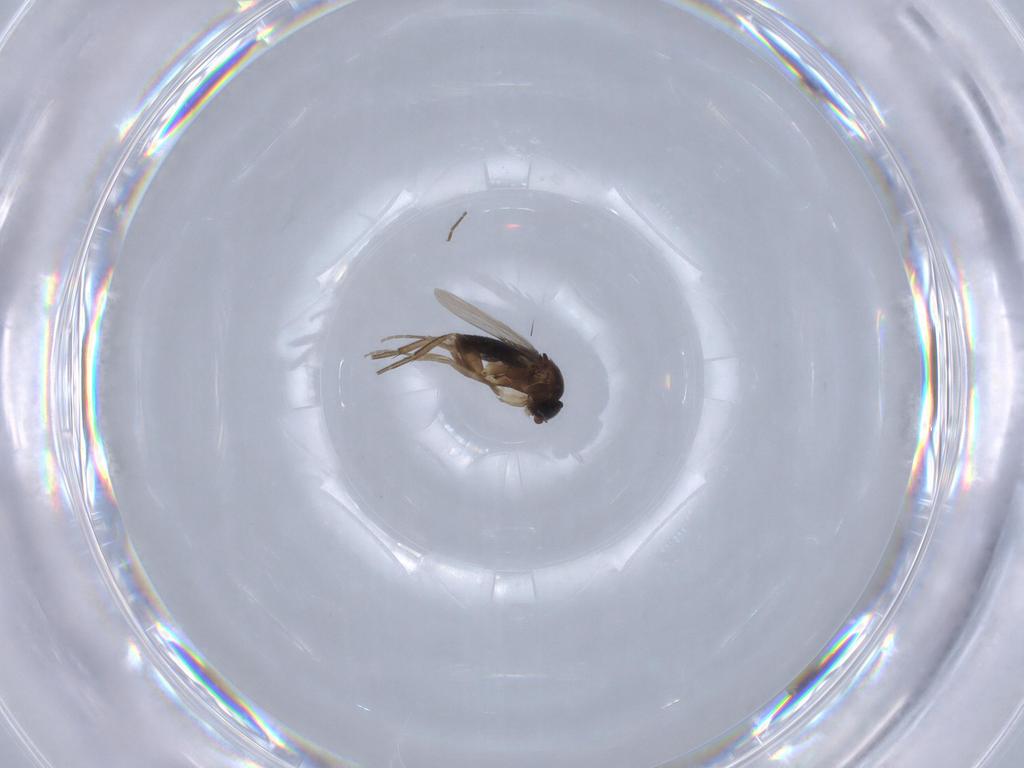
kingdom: Animalia
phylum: Arthropoda
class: Insecta
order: Diptera
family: Phoridae
